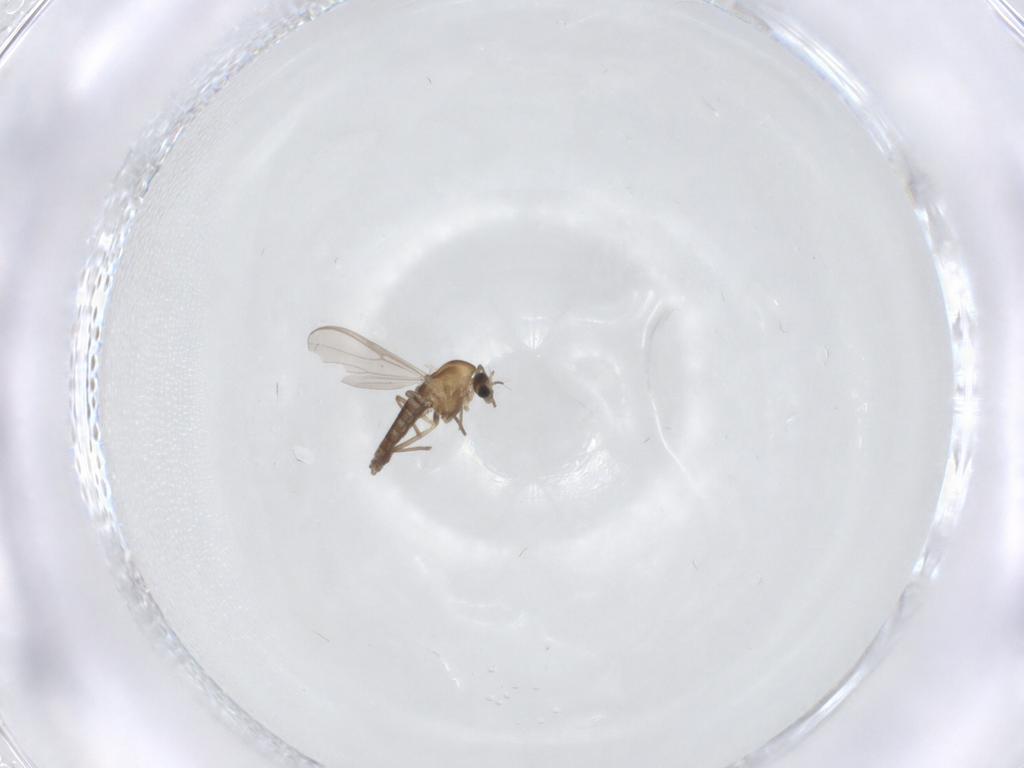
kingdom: Animalia
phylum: Arthropoda
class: Insecta
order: Diptera
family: Chironomidae
